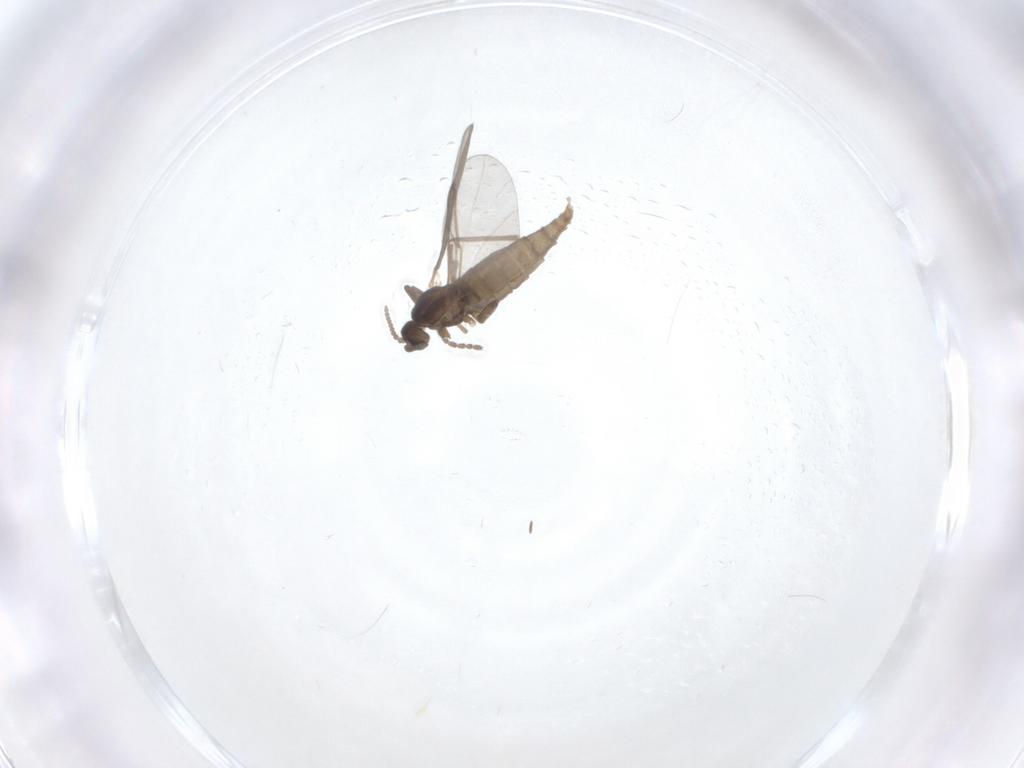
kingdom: Animalia
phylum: Arthropoda
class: Insecta
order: Diptera
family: Cecidomyiidae
